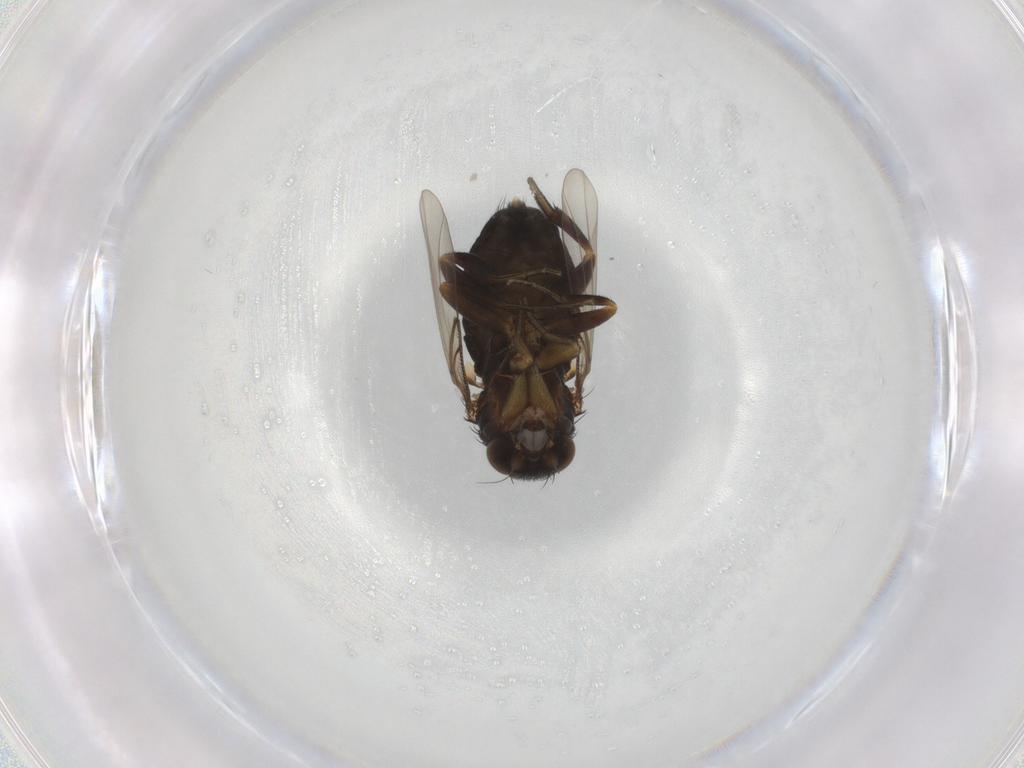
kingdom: Animalia
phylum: Arthropoda
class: Insecta
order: Diptera
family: Phoridae
